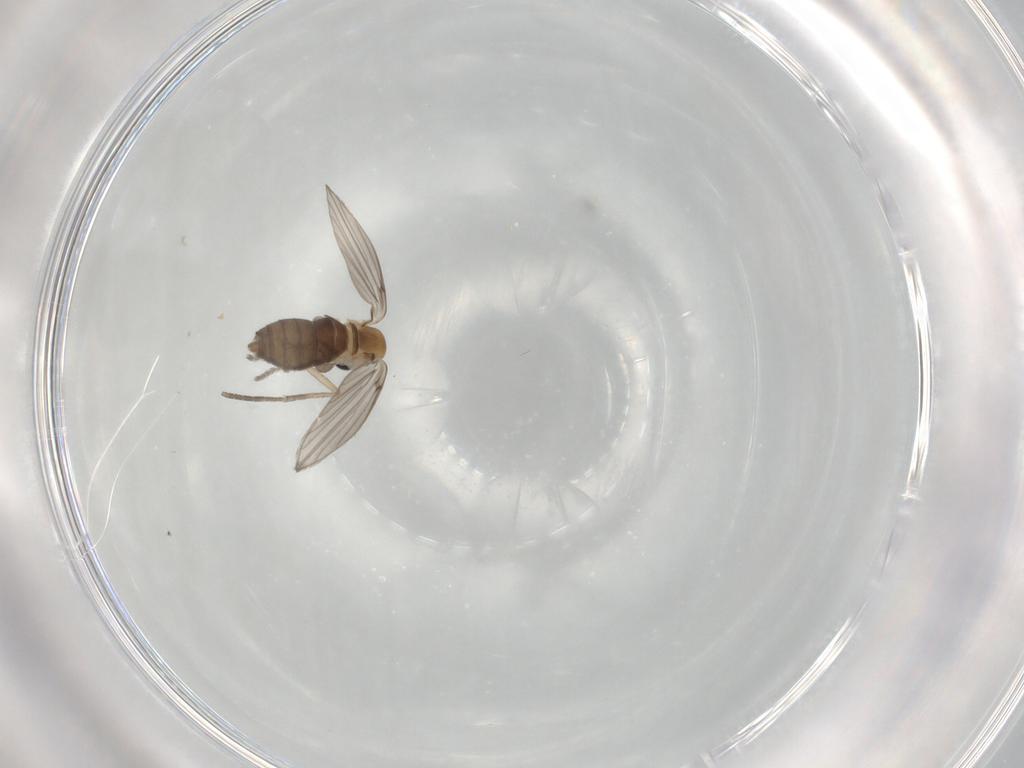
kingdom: Animalia
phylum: Arthropoda
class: Insecta
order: Diptera
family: Psychodidae
